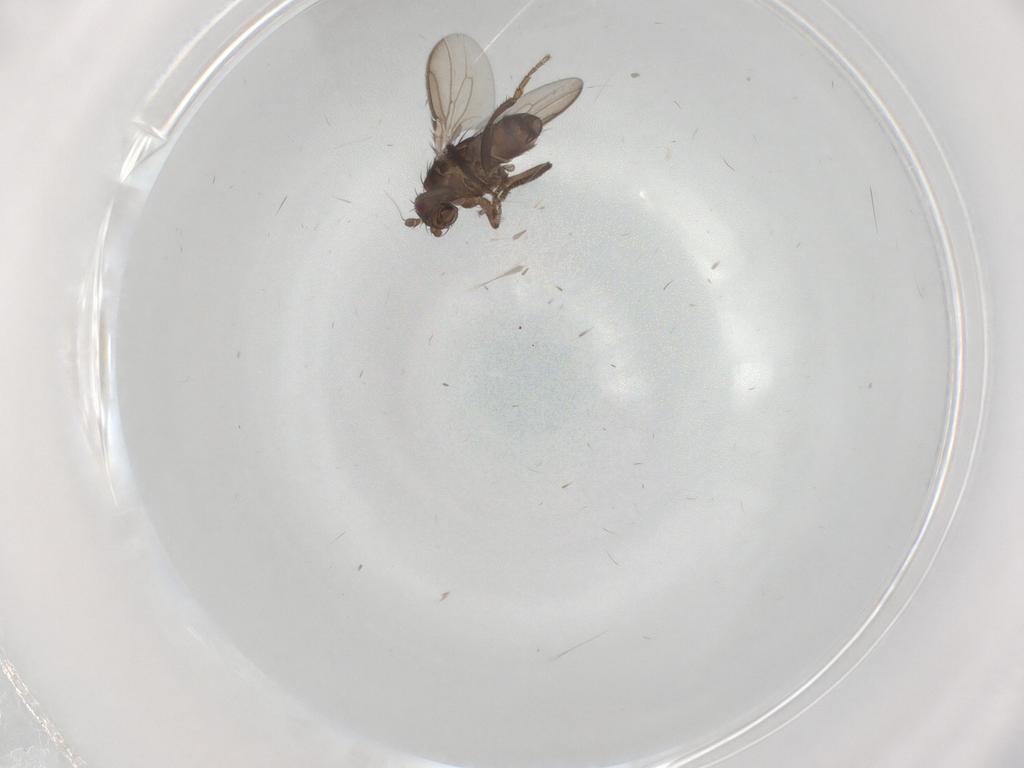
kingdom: Animalia
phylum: Arthropoda
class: Insecta
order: Diptera
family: Sphaeroceridae
